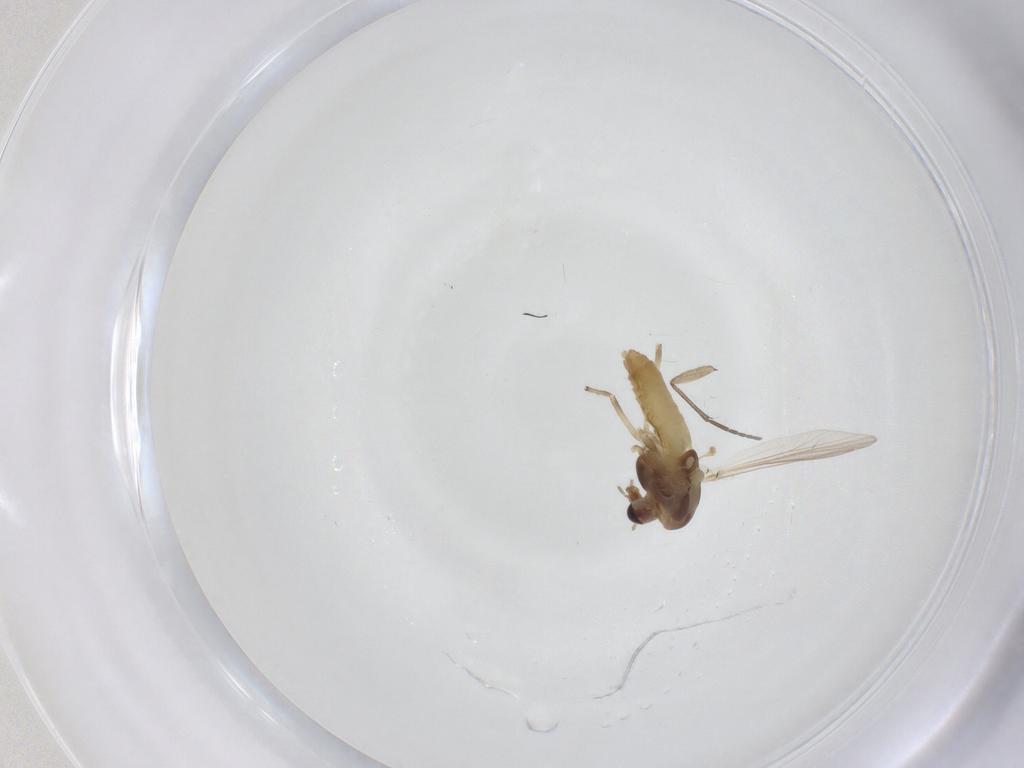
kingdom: Animalia
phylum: Arthropoda
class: Insecta
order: Diptera
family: Chironomidae
